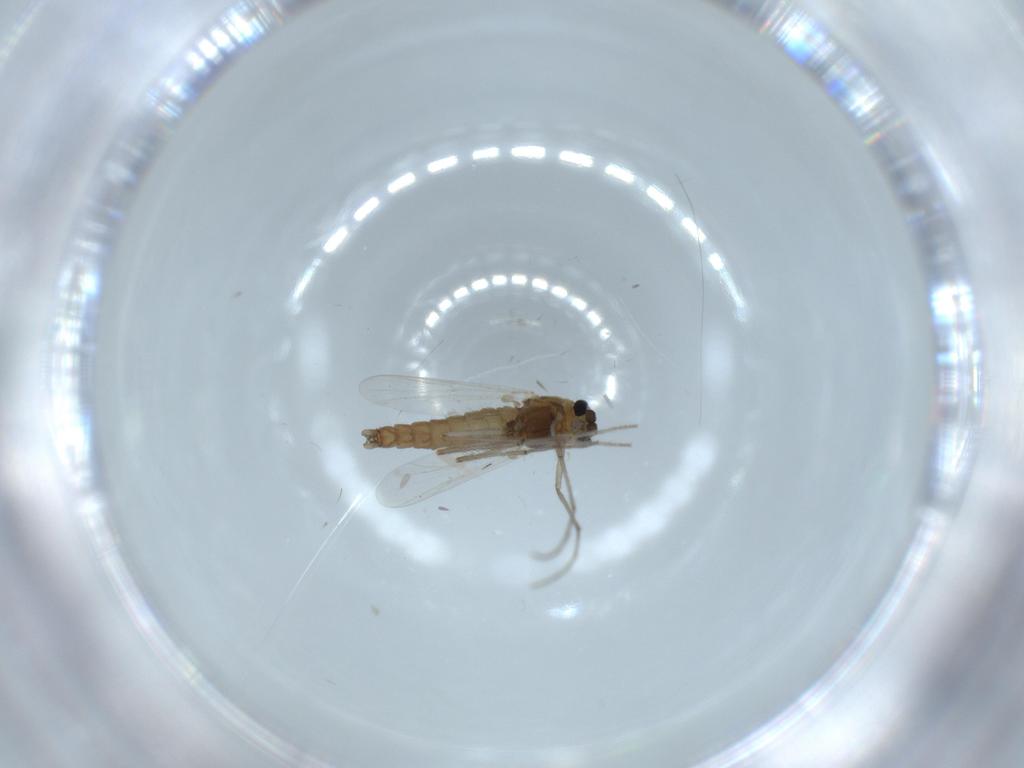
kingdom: Animalia
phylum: Arthropoda
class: Insecta
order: Diptera
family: Chironomidae
